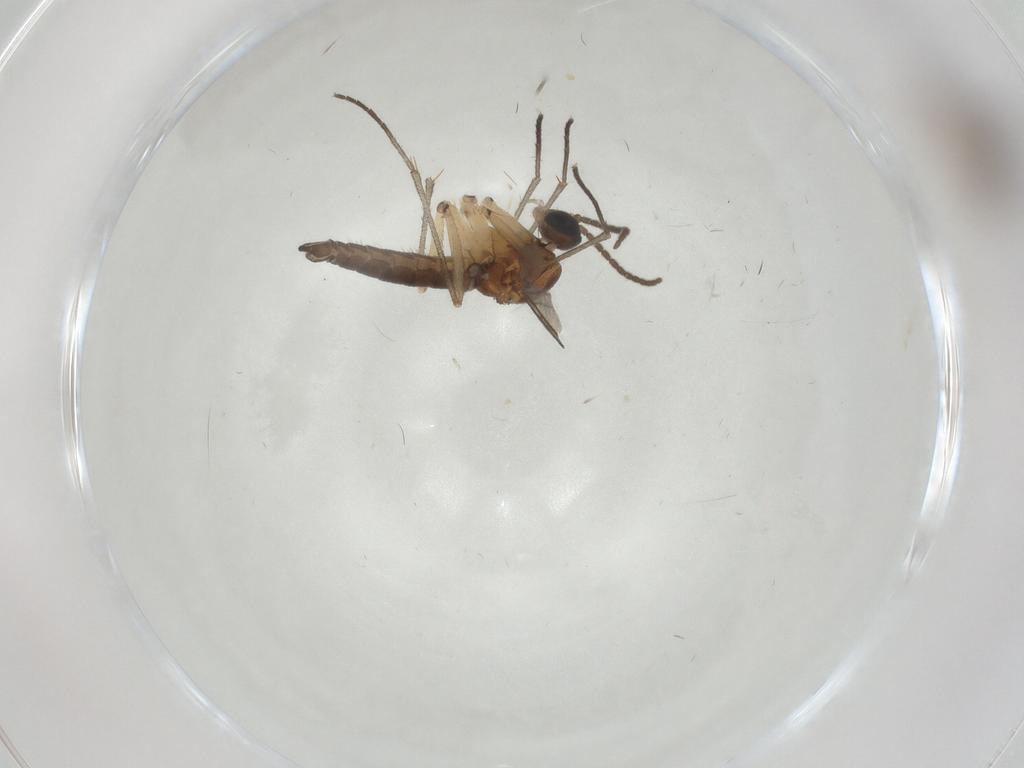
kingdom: Animalia
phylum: Arthropoda
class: Insecta
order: Diptera
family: Sciaridae
